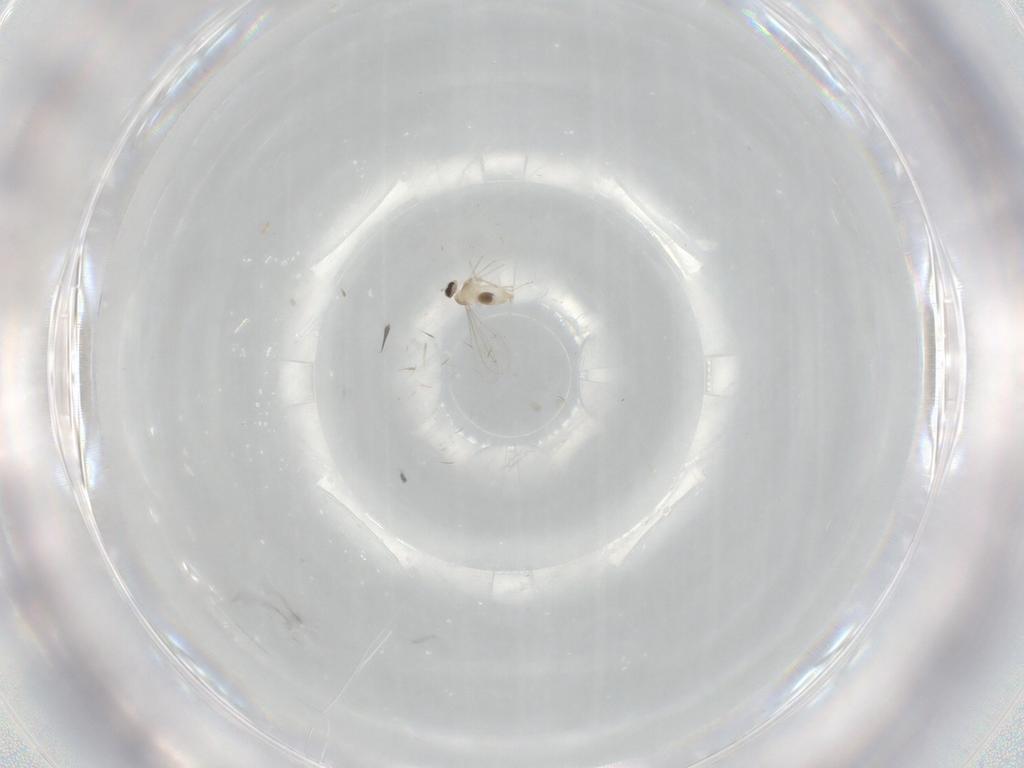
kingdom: Animalia
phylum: Arthropoda
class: Insecta
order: Diptera
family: Cecidomyiidae
